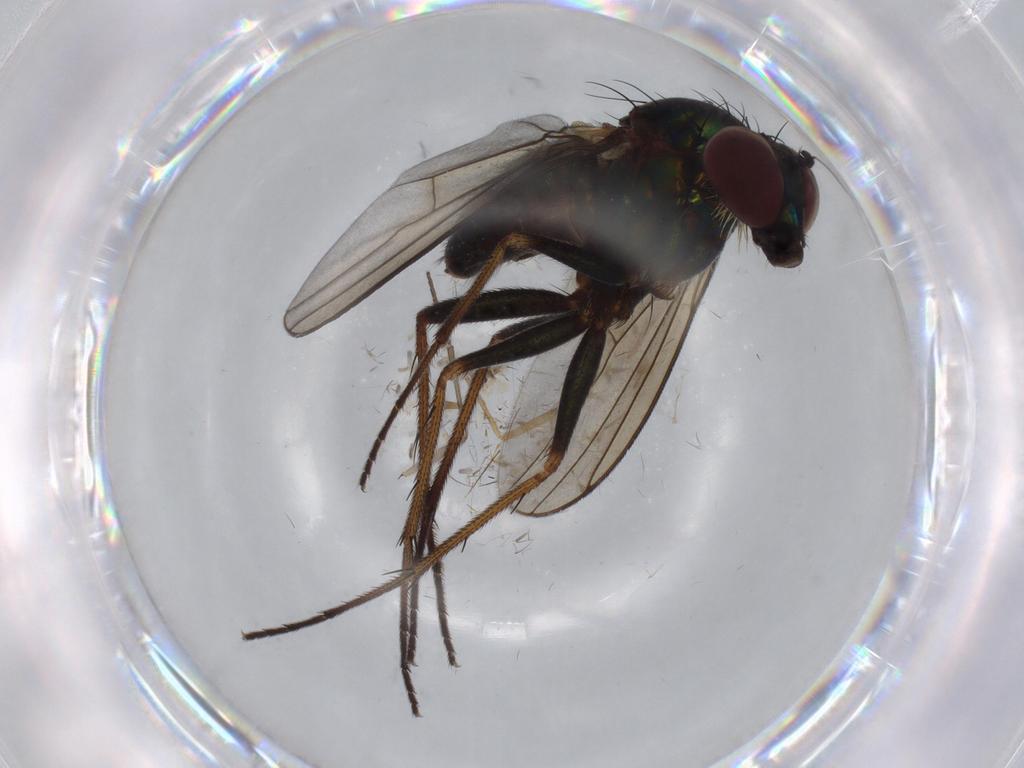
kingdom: Animalia
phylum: Arthropoda
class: Insecta
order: Diptera
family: Dolichopodidae
